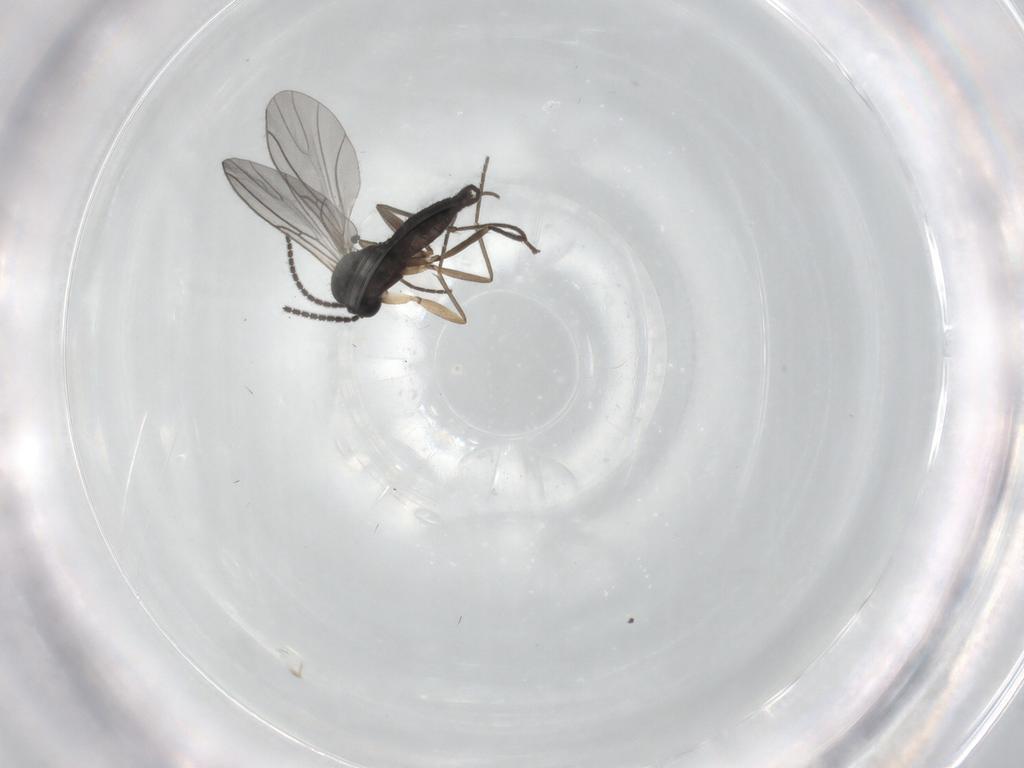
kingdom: Animalia
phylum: Arthropoda
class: Insecta
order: Diptera
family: Sciaridae
